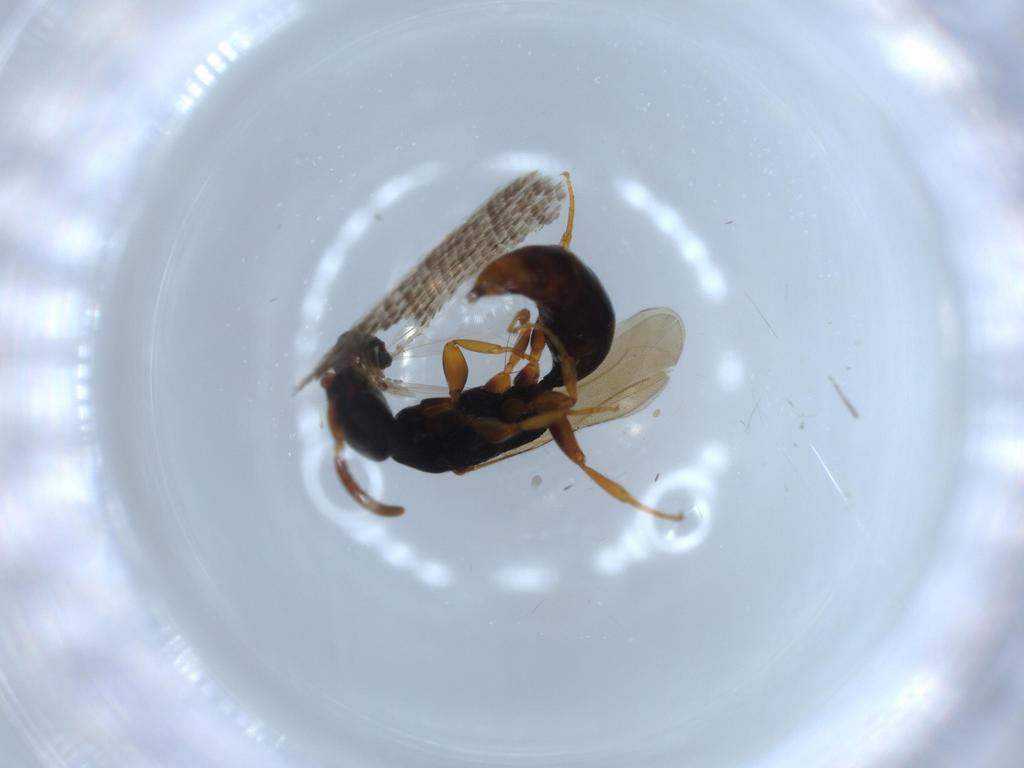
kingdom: Animalia
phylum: Arthropoda
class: Insecta
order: Hymenoptera
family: Bethylidae
